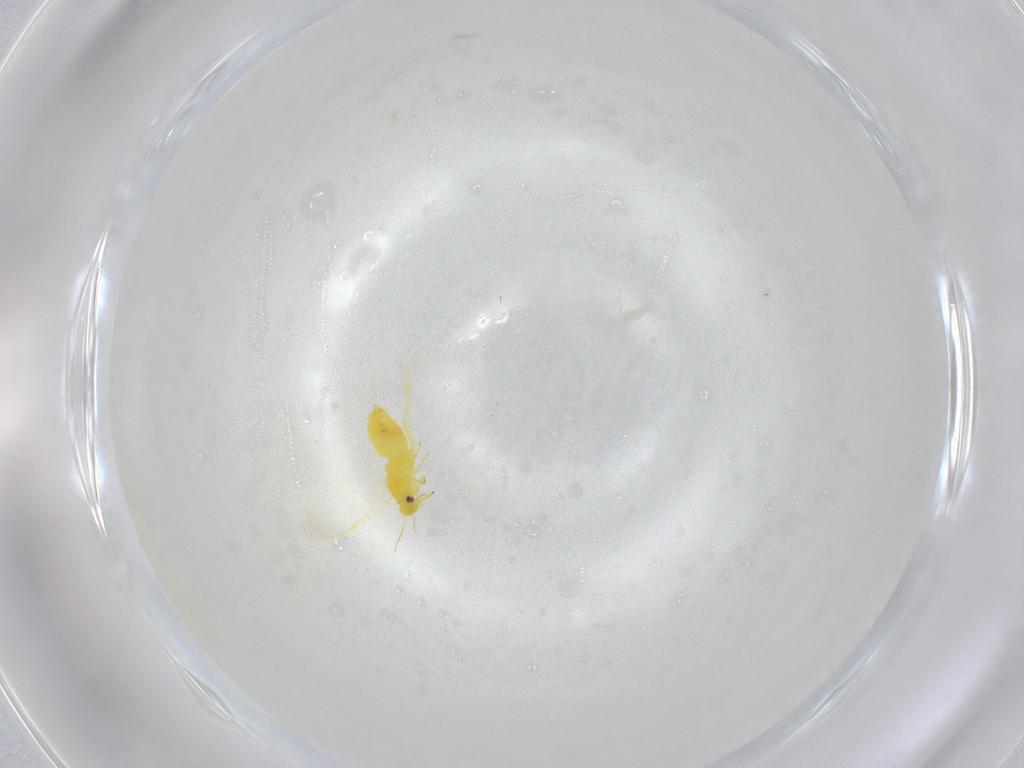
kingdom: Animalia
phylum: Arthropoda
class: Insecta
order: Hemiptera
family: Aleyrodidae
